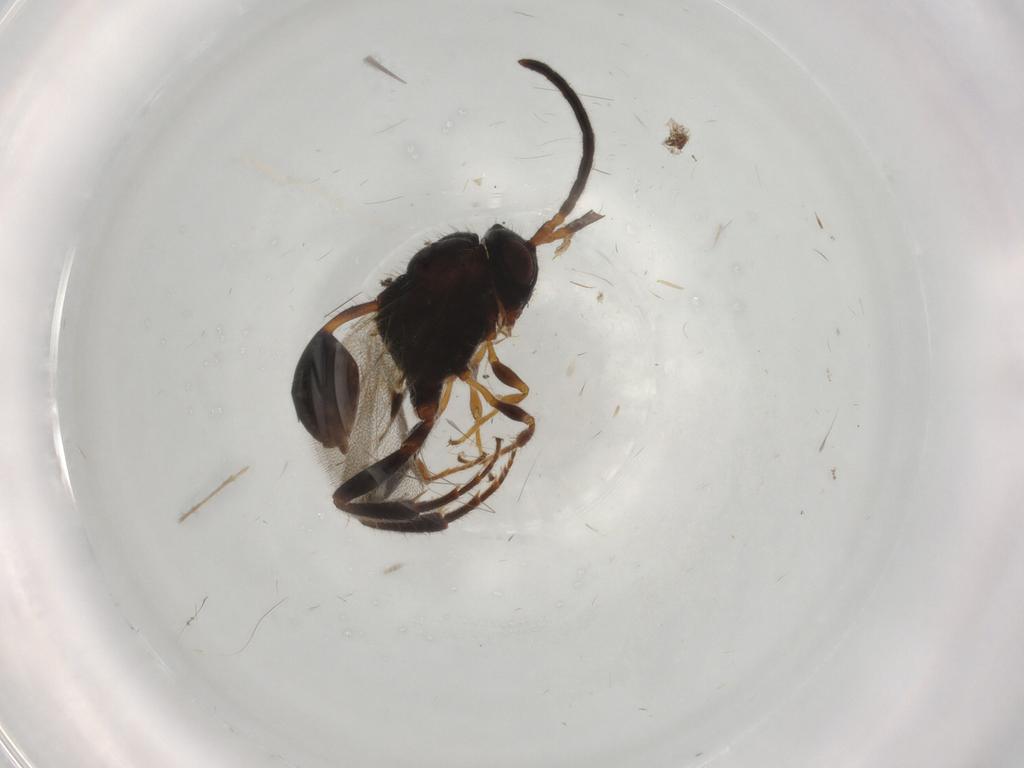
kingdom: Animalia
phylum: Arthropoda
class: Insecta
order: Hymenoptera
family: Evaniidae
